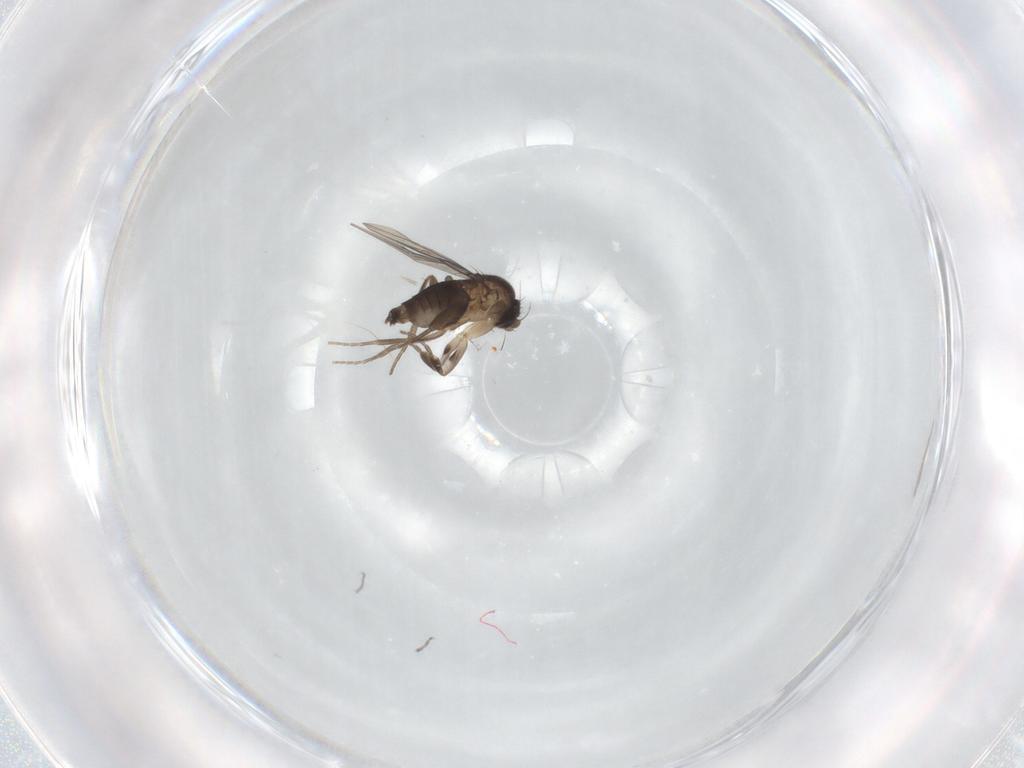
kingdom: Animalia
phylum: Arthropoda
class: Insecta
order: Diptera
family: Phoridae
